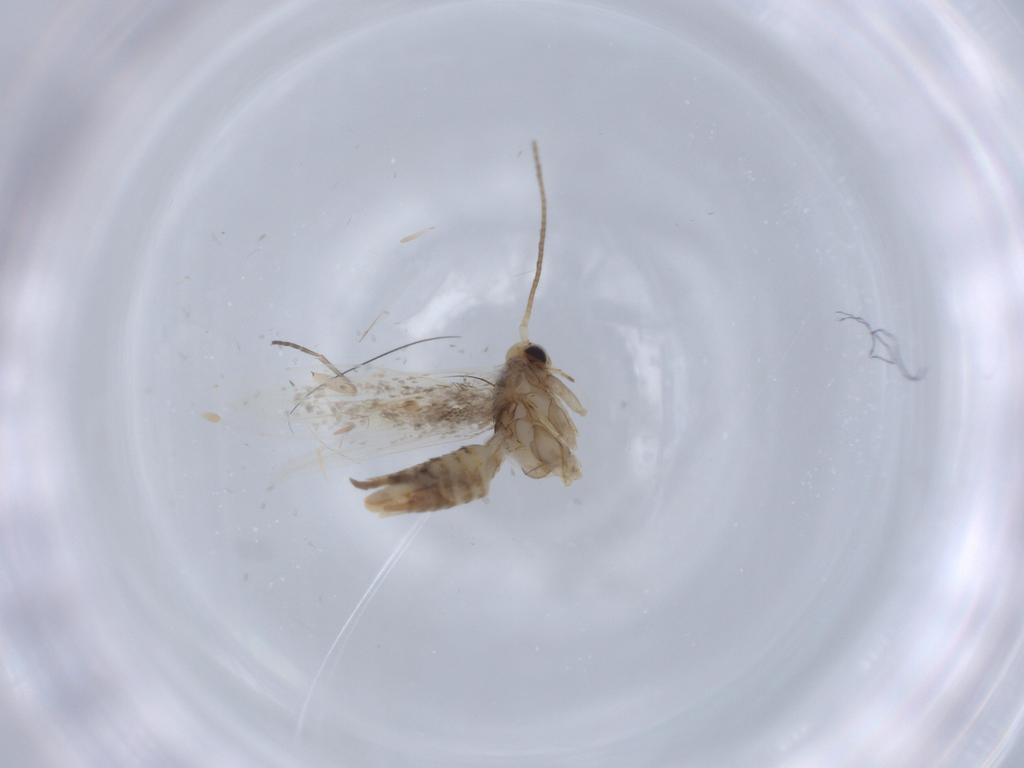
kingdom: Animalia
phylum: Arthropoda
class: Insecta
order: Lepidoptera
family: Gracillariidae
